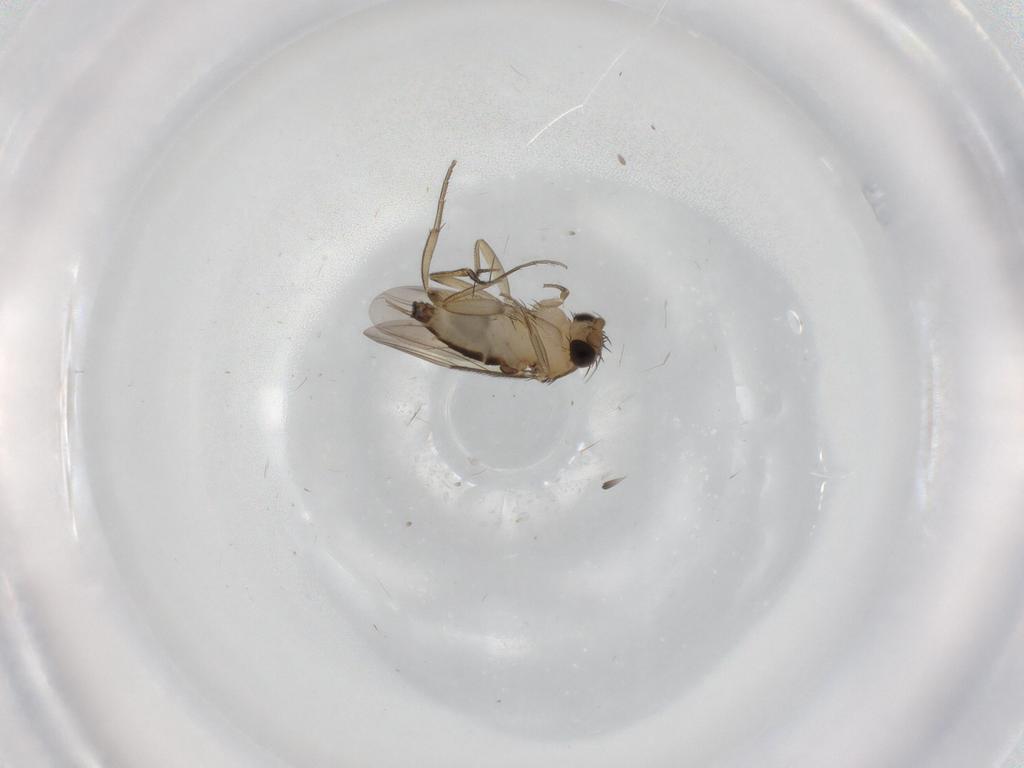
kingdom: Animalia
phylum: Arthropoda
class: Insecta
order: Diptera
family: Phoridae
